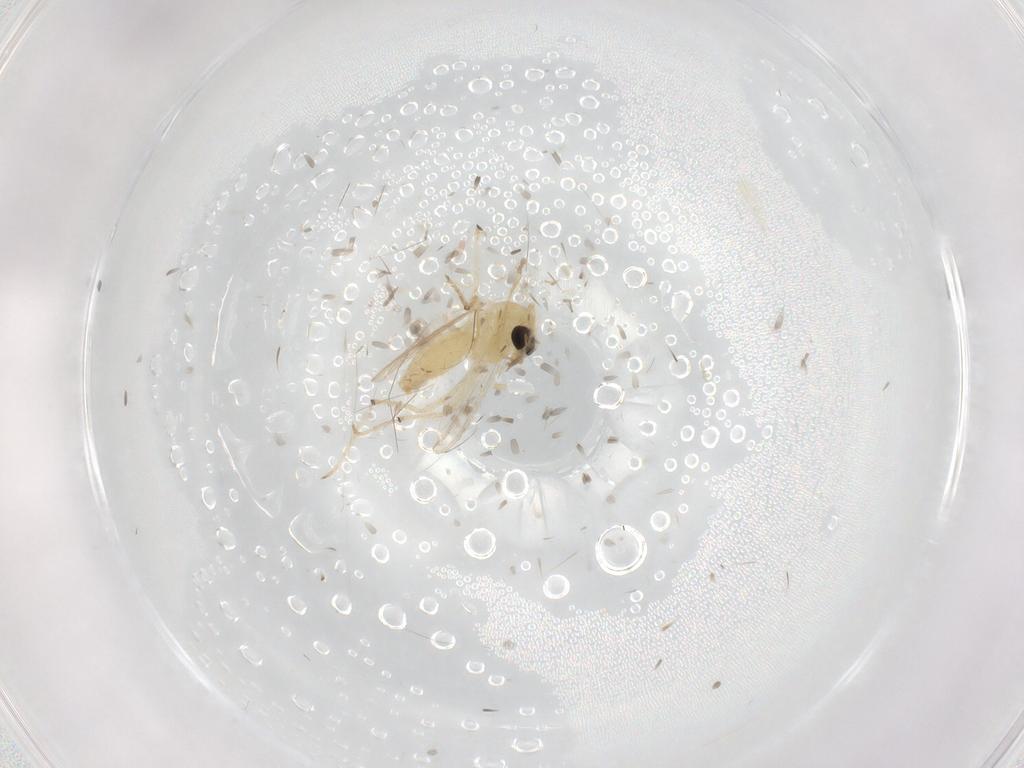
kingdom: Animalia
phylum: Arthropoda
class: Insecta
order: Diptera
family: Chironomidae
